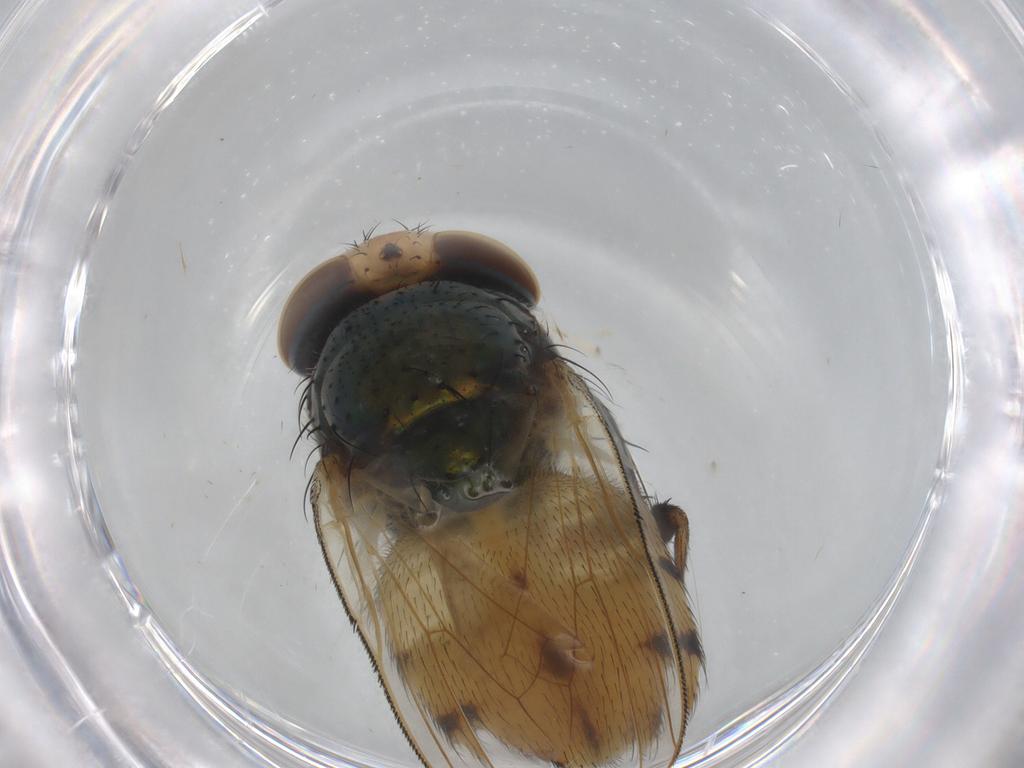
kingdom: Animalia
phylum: Arthropoda
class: Insecta
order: Diptera
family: Calliphoridae
